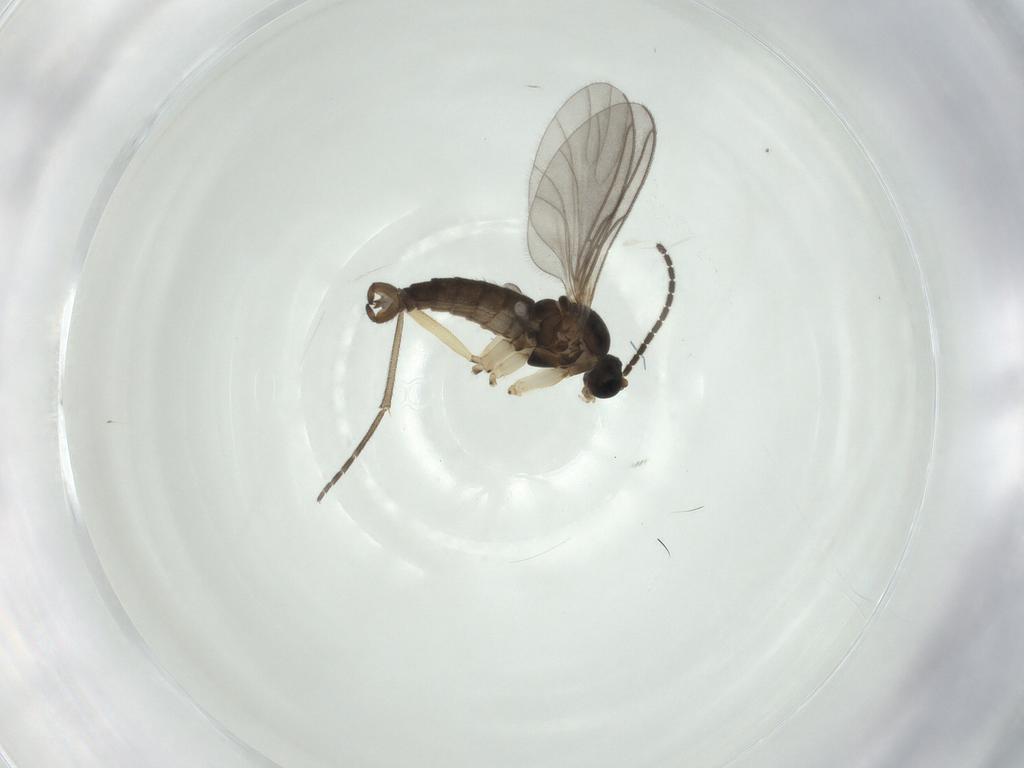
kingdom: Animalia
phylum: Arthropoda
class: Insecta
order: Diptera
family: Sciaridae
